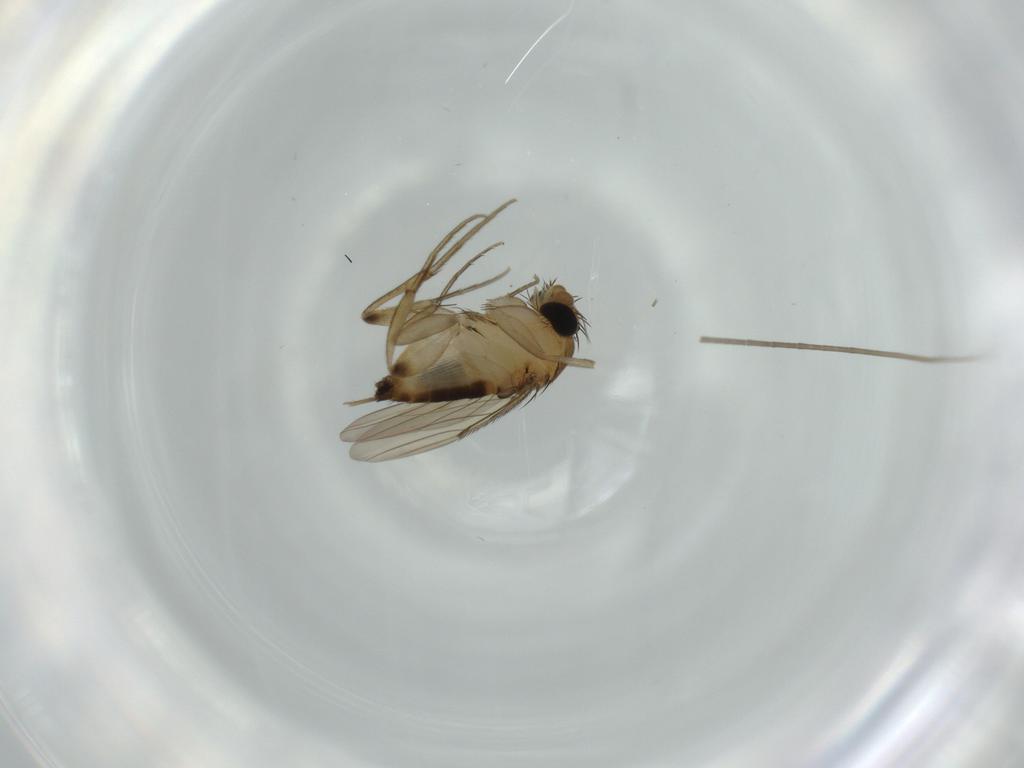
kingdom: Animalia
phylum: Arthropoda
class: Insecta
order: Diptera
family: Phoridae
